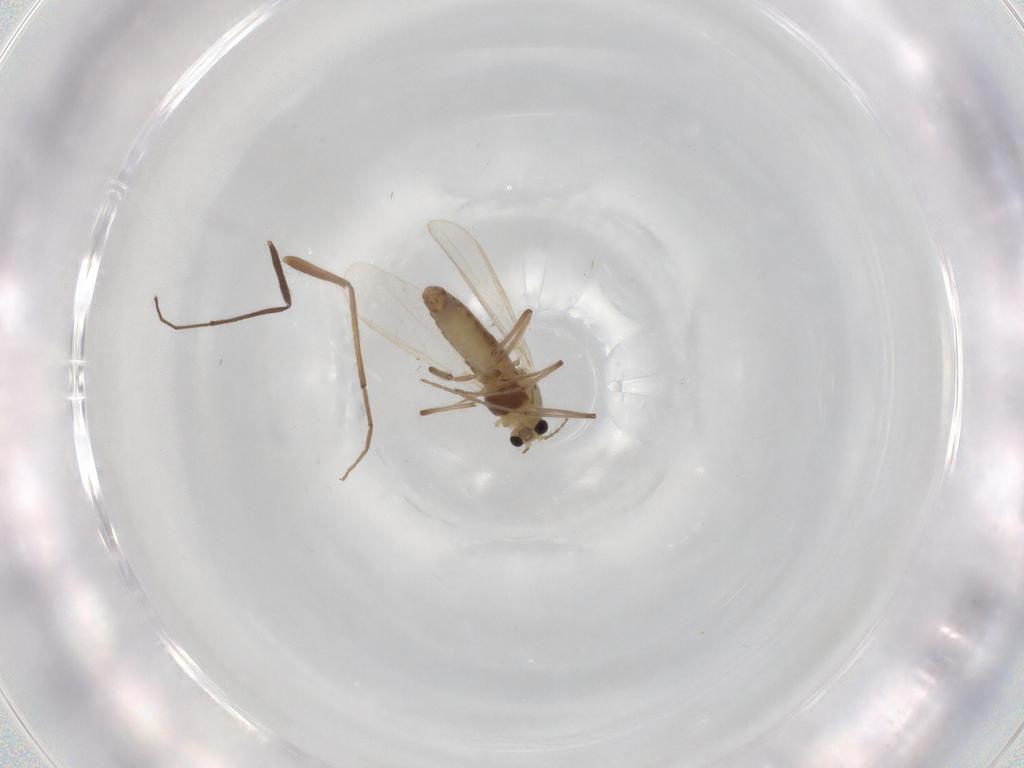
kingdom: Animalia
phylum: Arthropoda
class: Insecta
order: Diptera
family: Chironomidae
